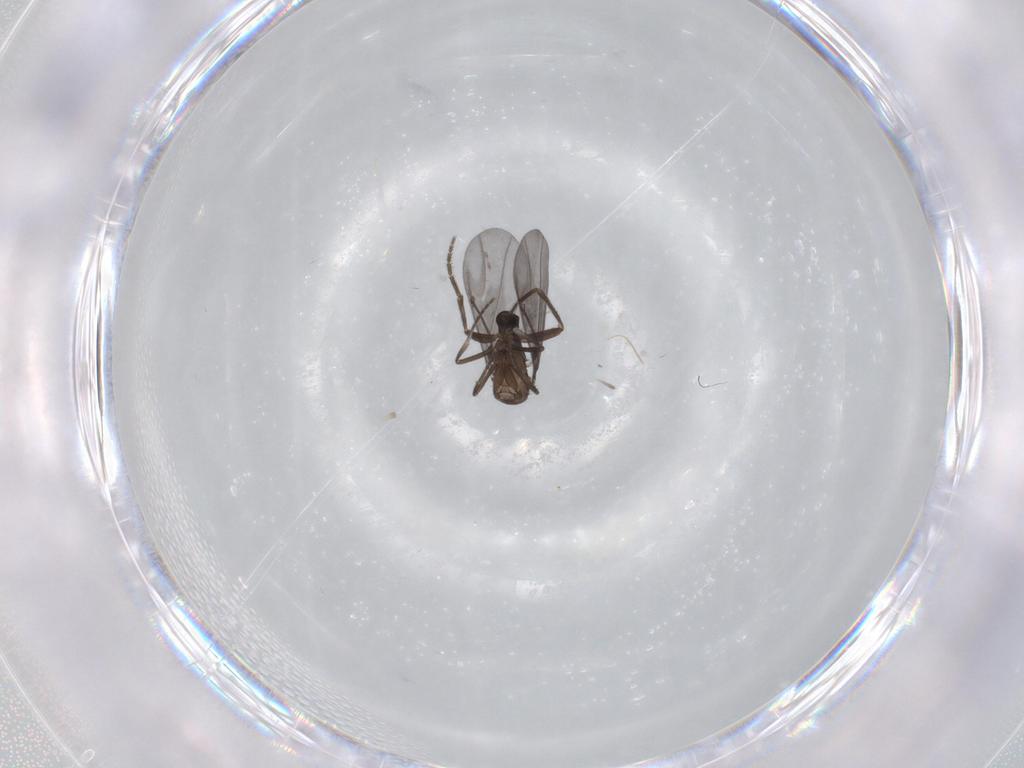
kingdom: Animalia
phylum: Arthropoda
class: Insecta
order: Diptera
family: Phoridae
